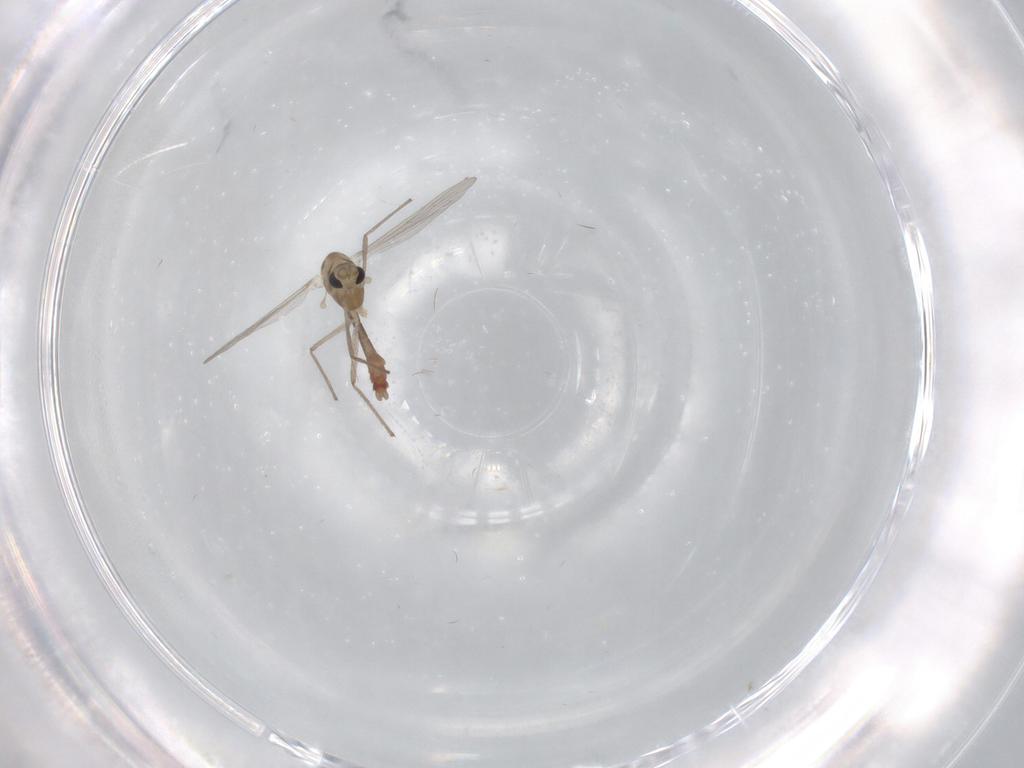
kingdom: Animalia
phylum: Arthropoda
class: Insecta
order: Diptera
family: Chironomidae
